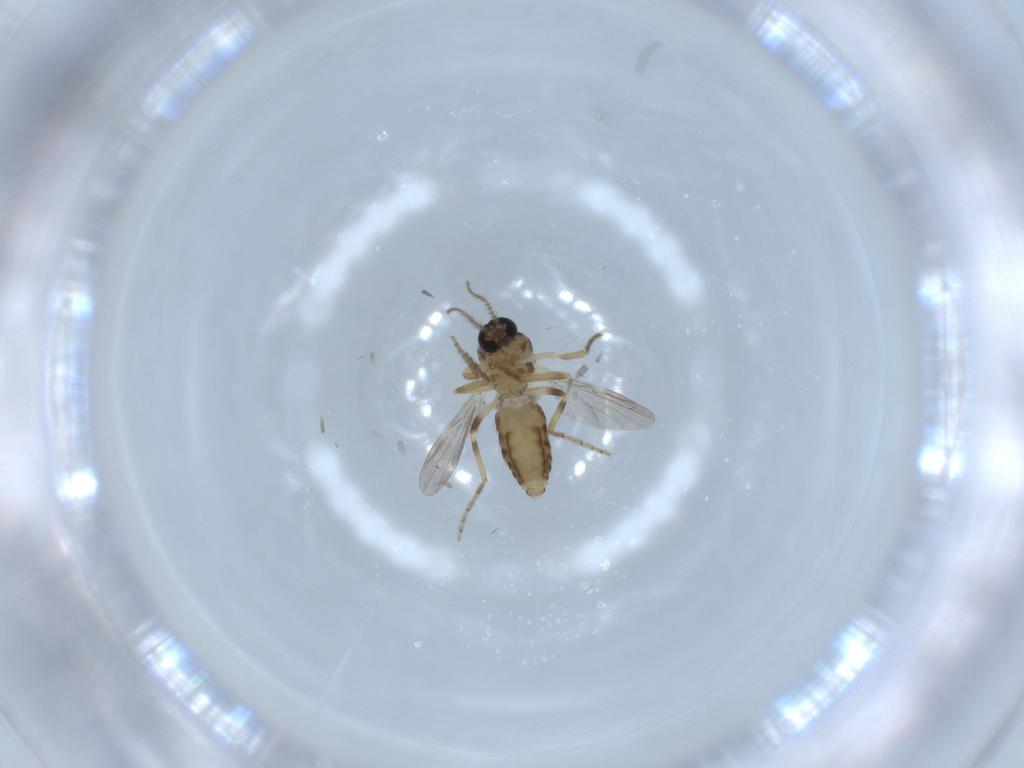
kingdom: Animalia
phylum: Arthropoda
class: Insecta
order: Diptera
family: Ceratopogonidae
